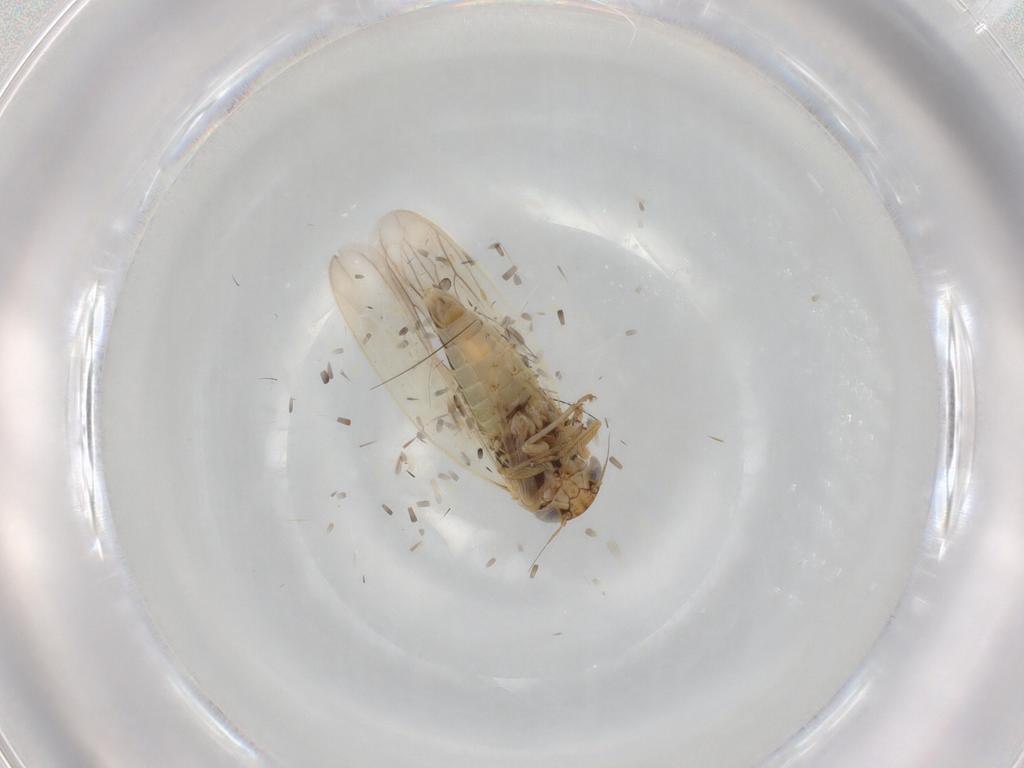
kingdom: Animalia
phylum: Arthropoda
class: Insecta
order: Hemiptera
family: Cicadellidae
